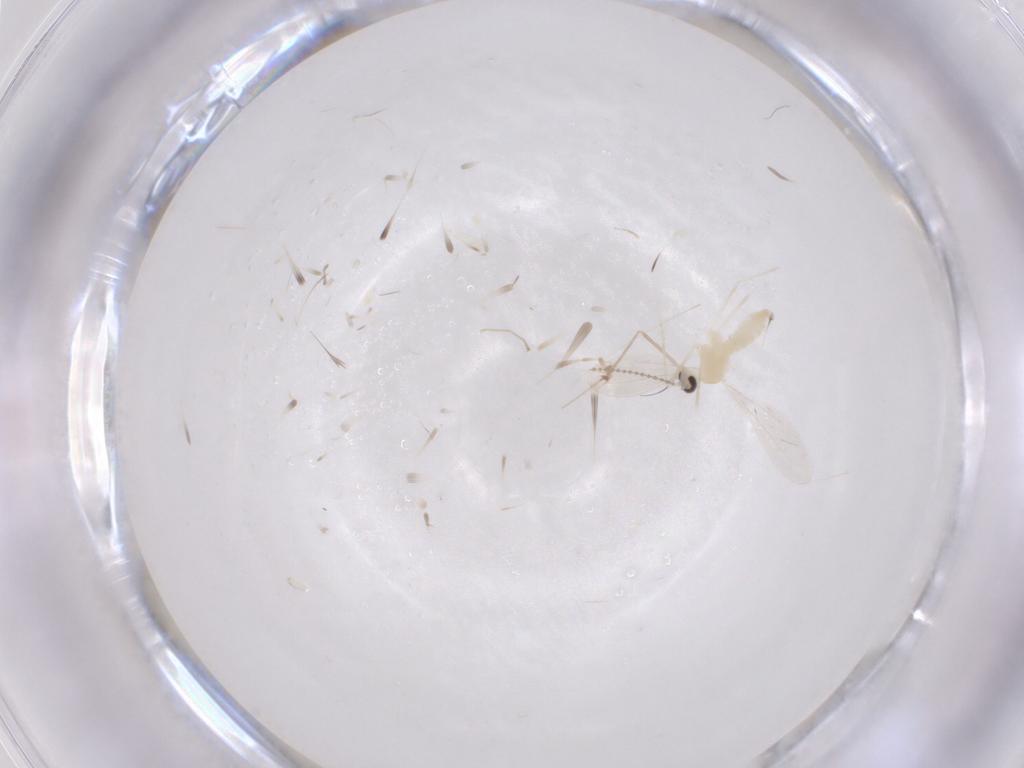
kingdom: Animalia
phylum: Arthropoda
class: Insecta
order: Diptera
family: Cecidomyiidae
